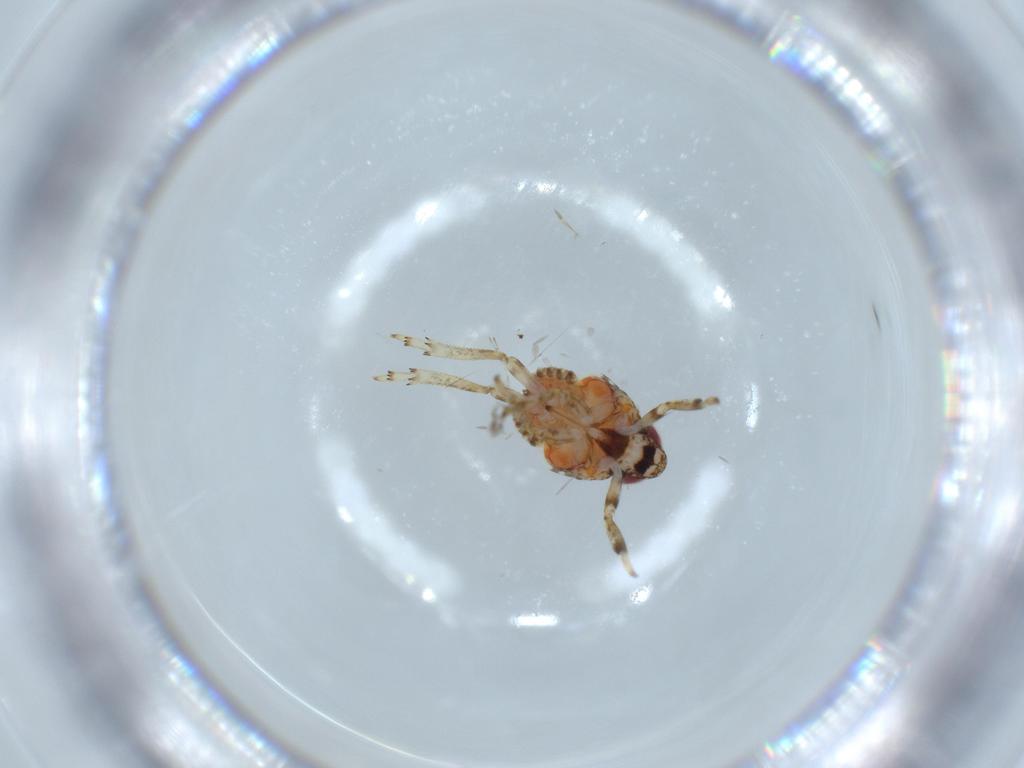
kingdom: Animalia
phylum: Arthropoda
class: Insecta
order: Hemiptera
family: Issidae
